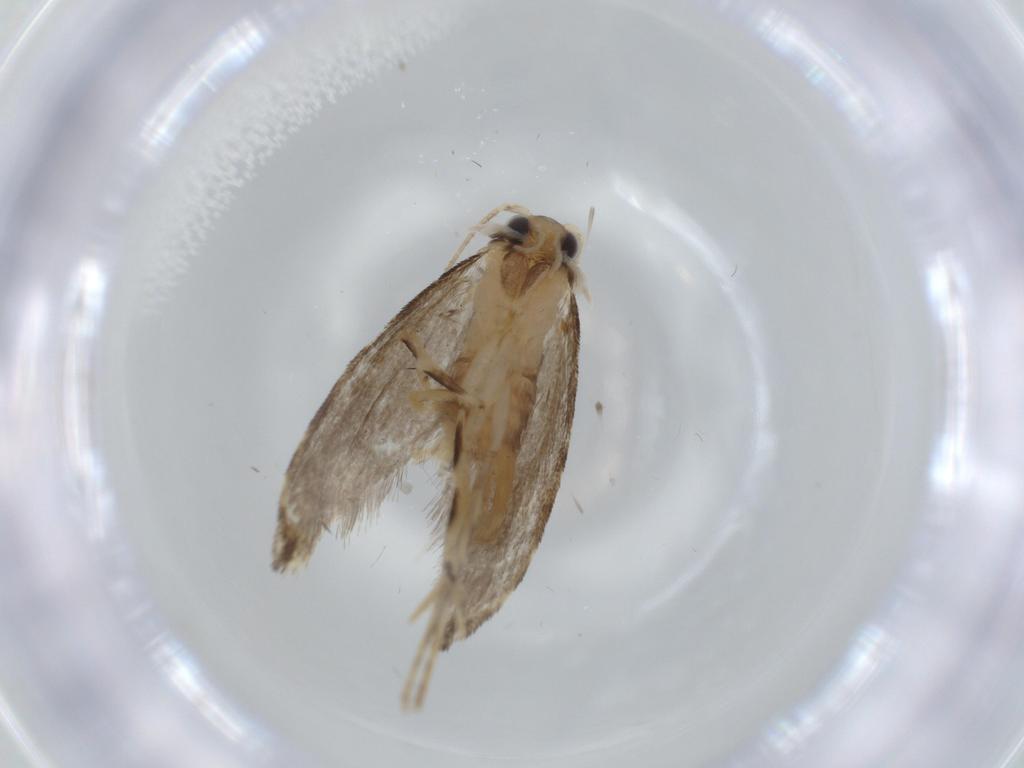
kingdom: Animalia
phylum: Arthropoda
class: Insecta
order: Lepidoptera
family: Tineidae
